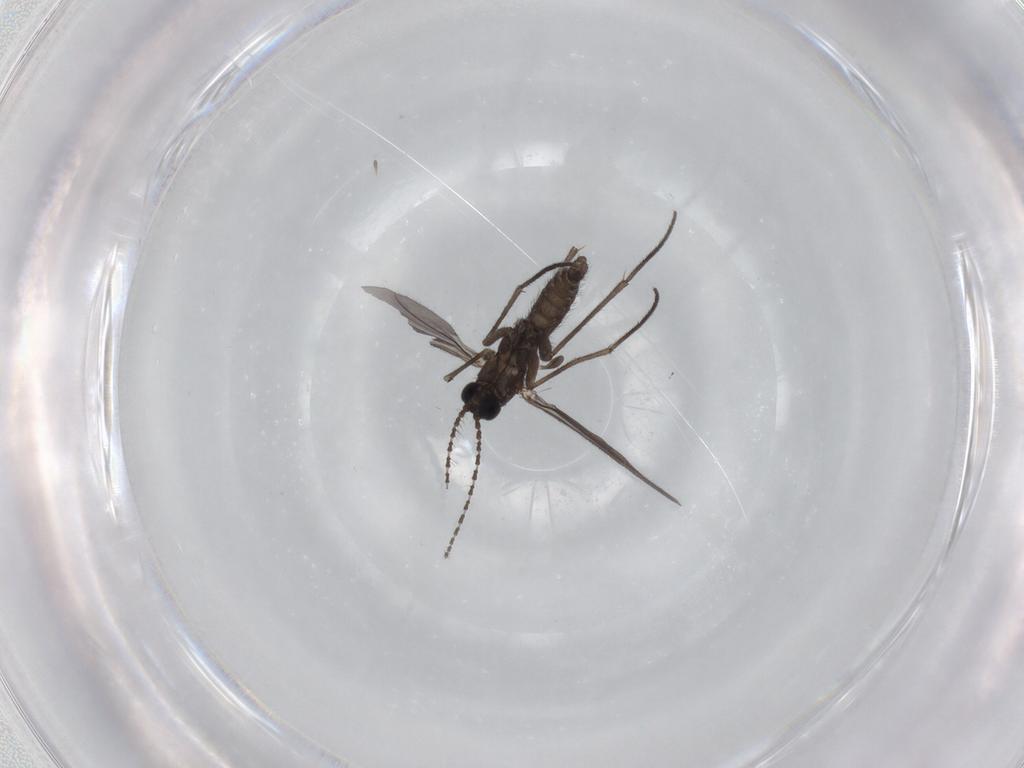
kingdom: Animalia
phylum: Arthropoda
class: Insecta
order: Diptera
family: Sciaridae
